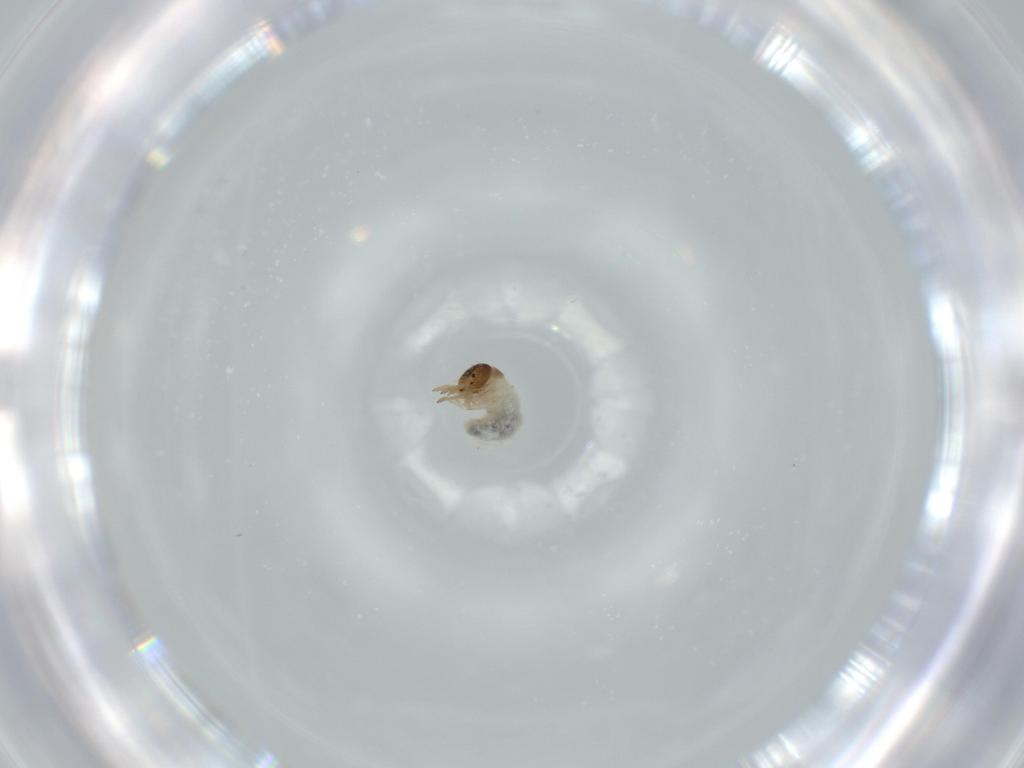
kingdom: Animalia
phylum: Arthropoda
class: Insecta
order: Coleoptera
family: Chrysomelidae
